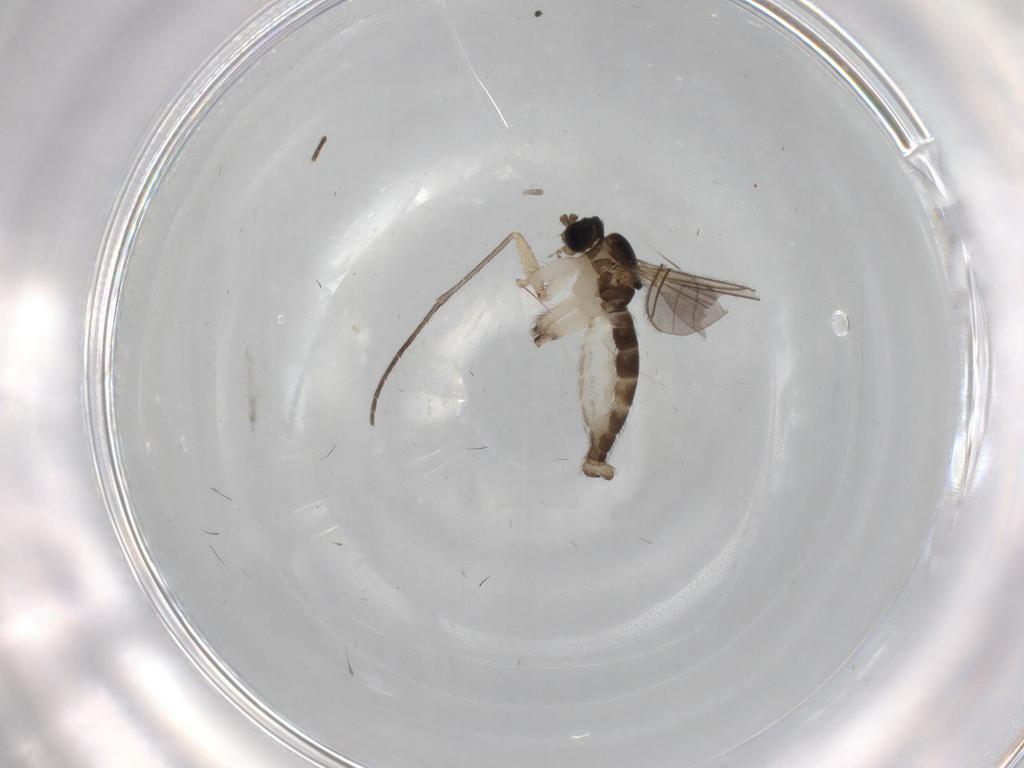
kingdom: Animalia
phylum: Arthropoda
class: Insecta
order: Diptera
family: Sciaridae
